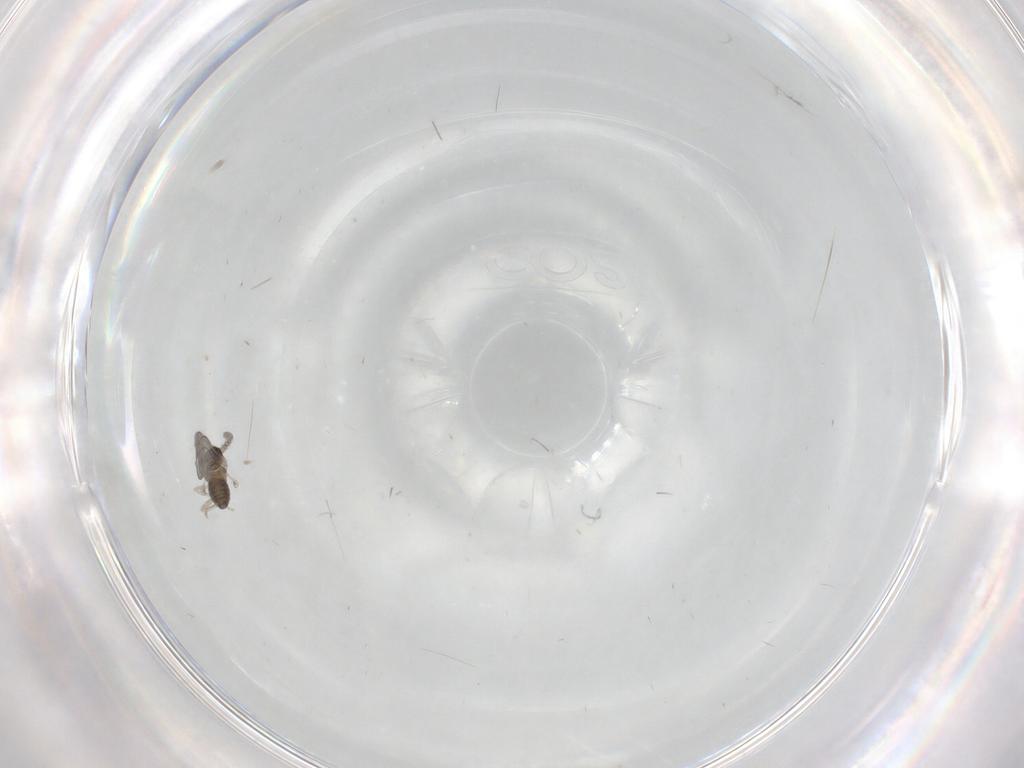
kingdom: Animalia
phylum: Arthropoda
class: Insecta
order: Diptera
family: Cecidomyiidae
